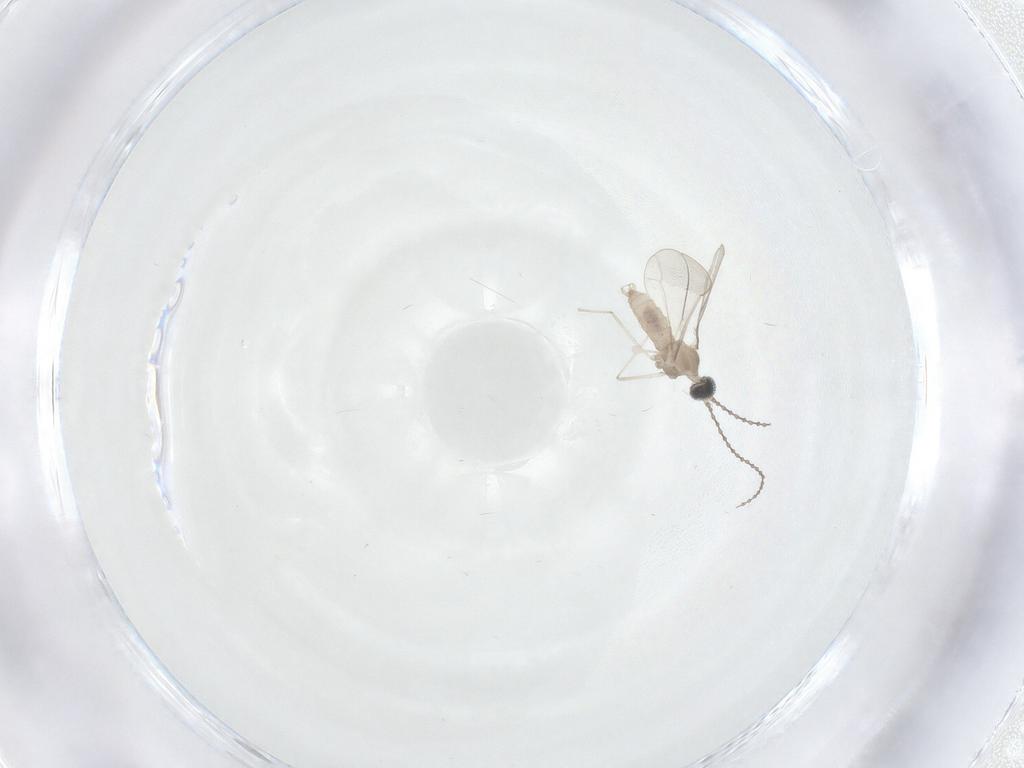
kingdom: Animalia
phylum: Arthropoda
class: Insecta
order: Diptera
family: Cecidomyiidae
